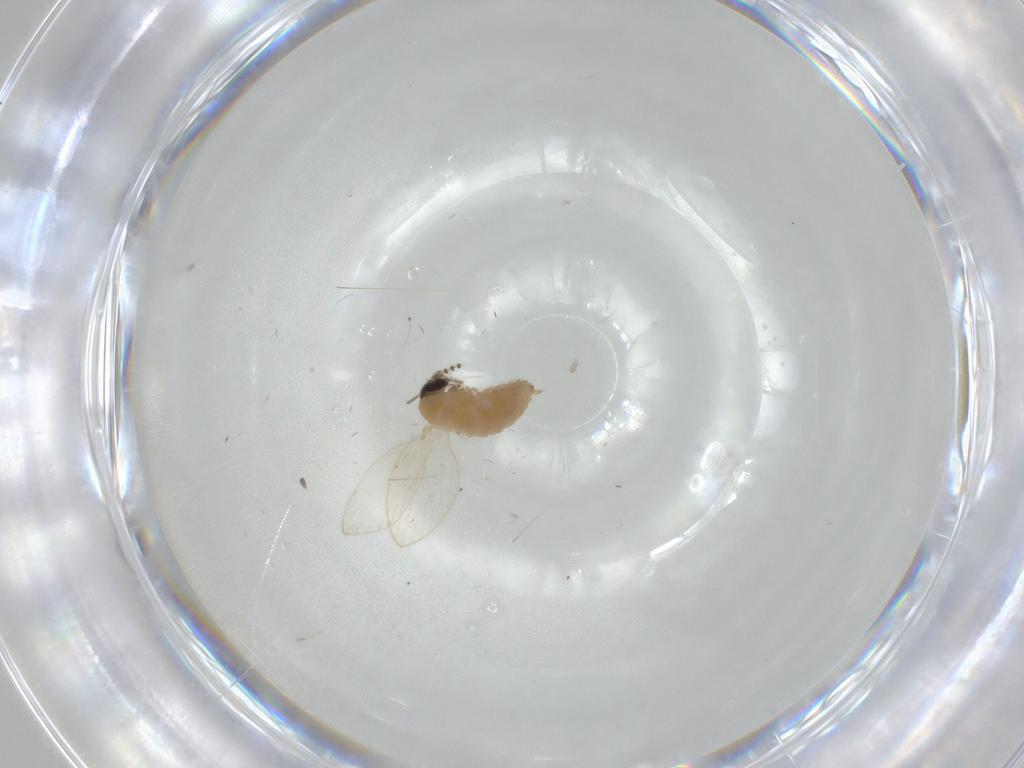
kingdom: Animalia
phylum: Arthropoda
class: Insecta
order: Diptera
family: Psychodidae
